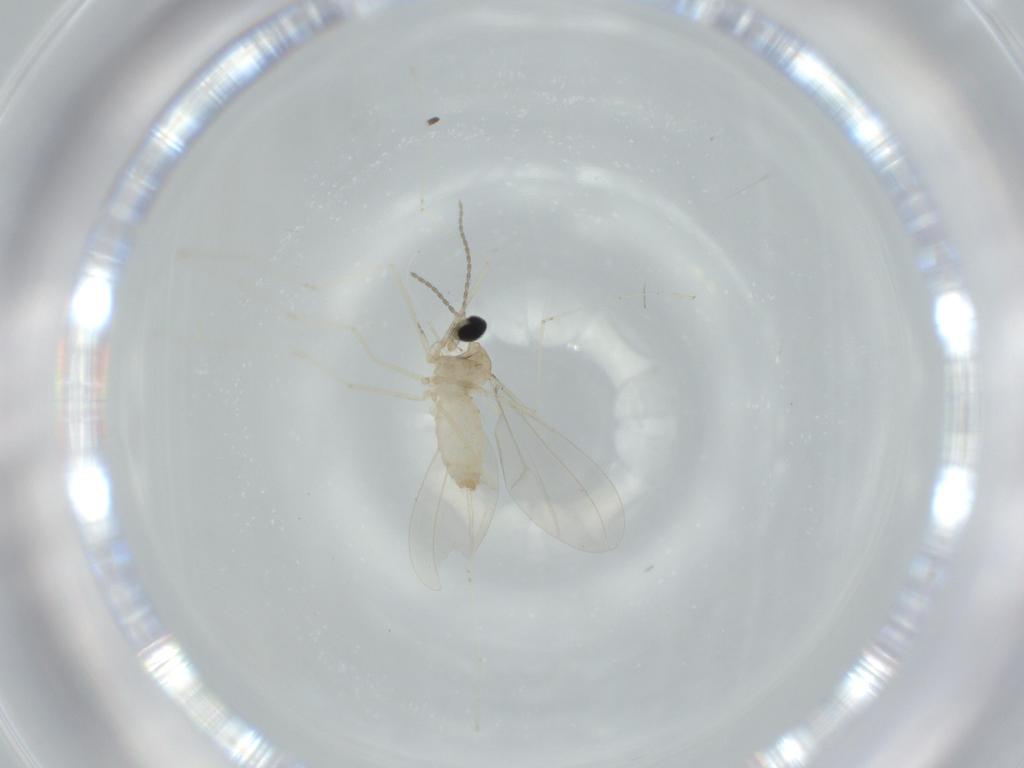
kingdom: Animalia
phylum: Arthropoda
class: Insecta
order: Diptera
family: Cecidomyiidae
